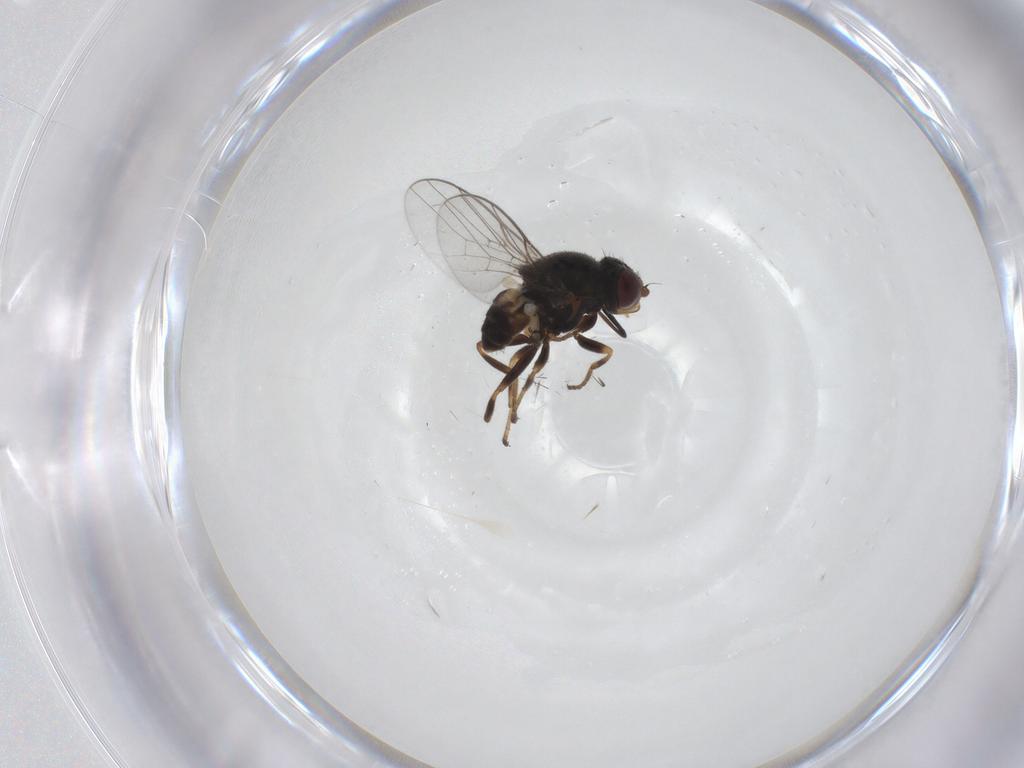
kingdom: Animalia
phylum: Arthropoda
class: Insecta
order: Diptera
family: Chloropidae
